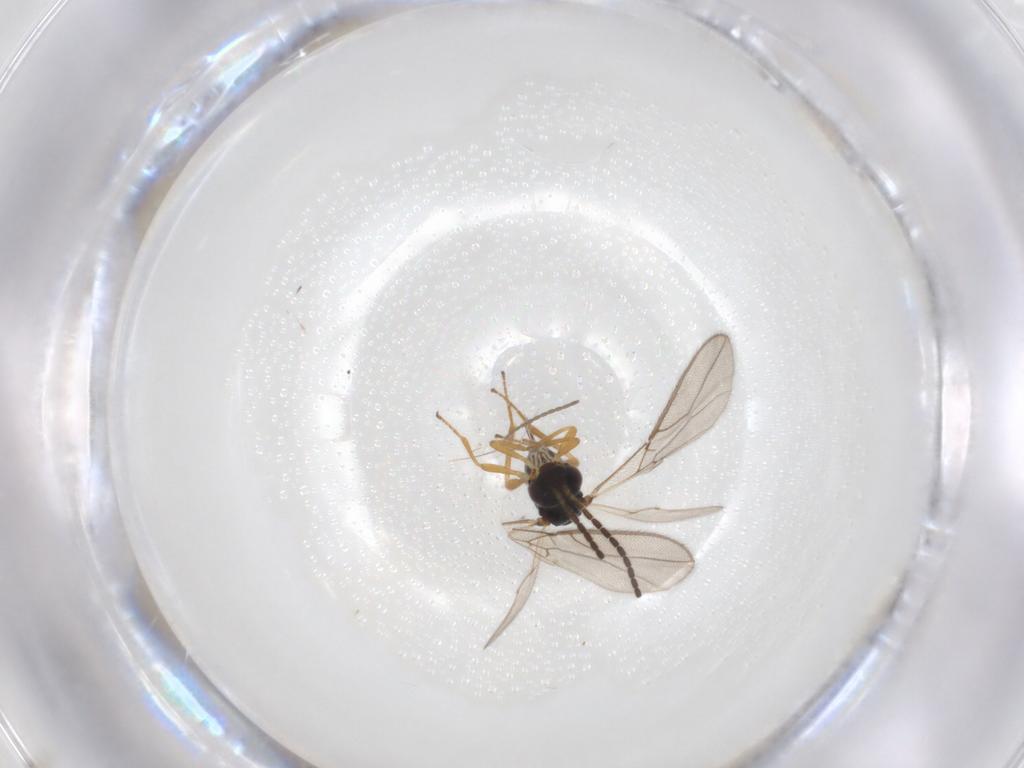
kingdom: Animalia
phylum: Arthropoda
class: Insecta
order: Hymenoptera
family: Braconidae
